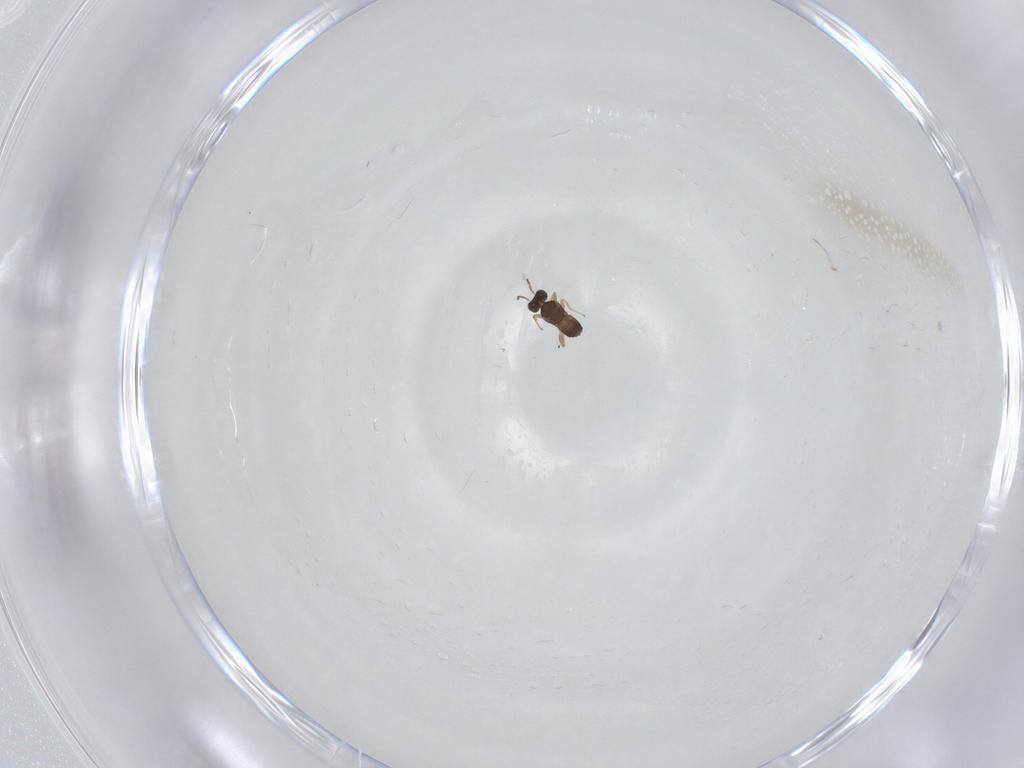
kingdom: Animalia
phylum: Arthropoda
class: Insecta
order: Hymenoptera
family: Mymaridae
